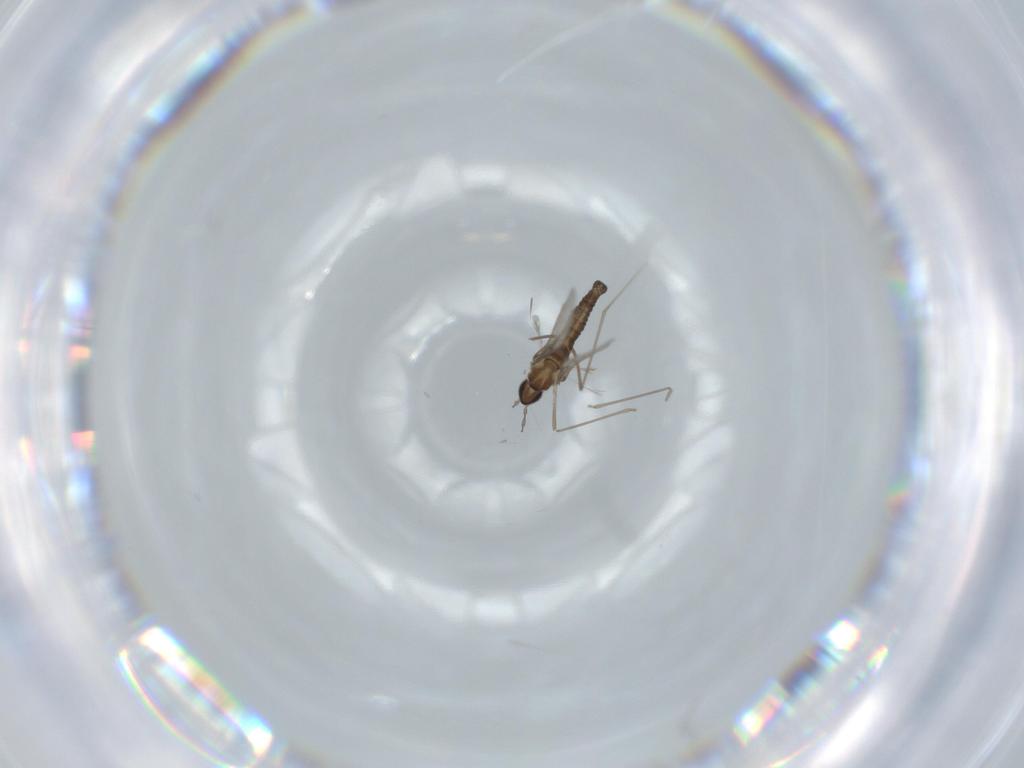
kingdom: Animalia
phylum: Arthropoda
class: Insecta
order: Diptera
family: Cecidomyiidae
